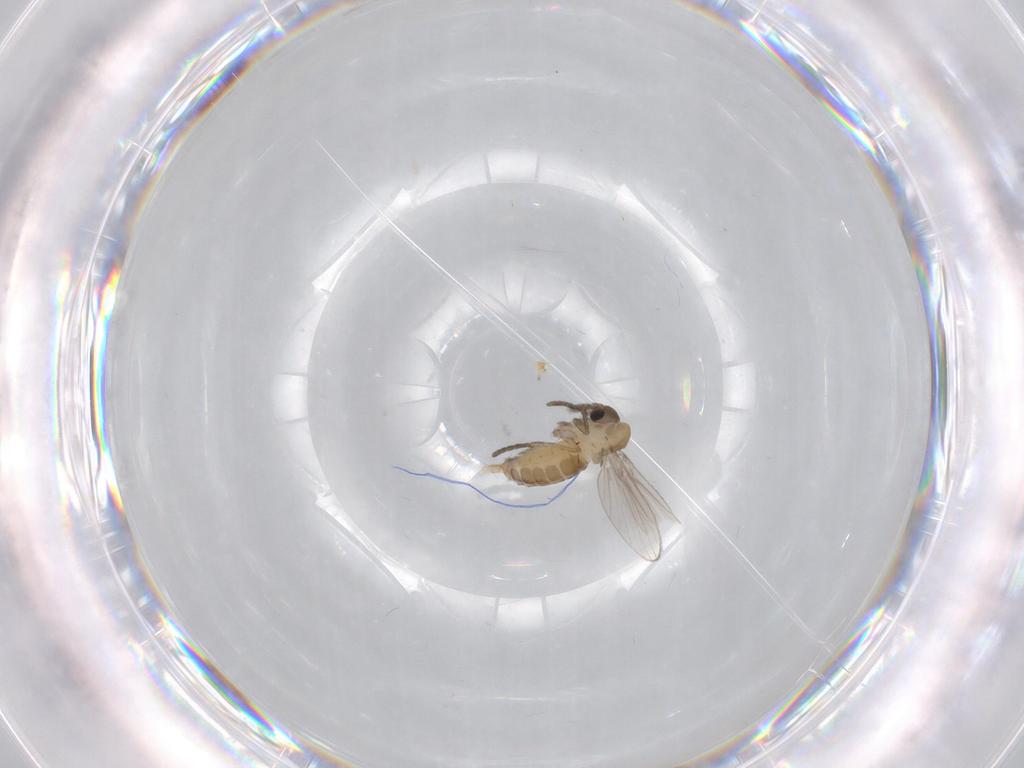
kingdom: Animalia
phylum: Arthropoda
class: Insecta
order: Diptera
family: Psychodidae
